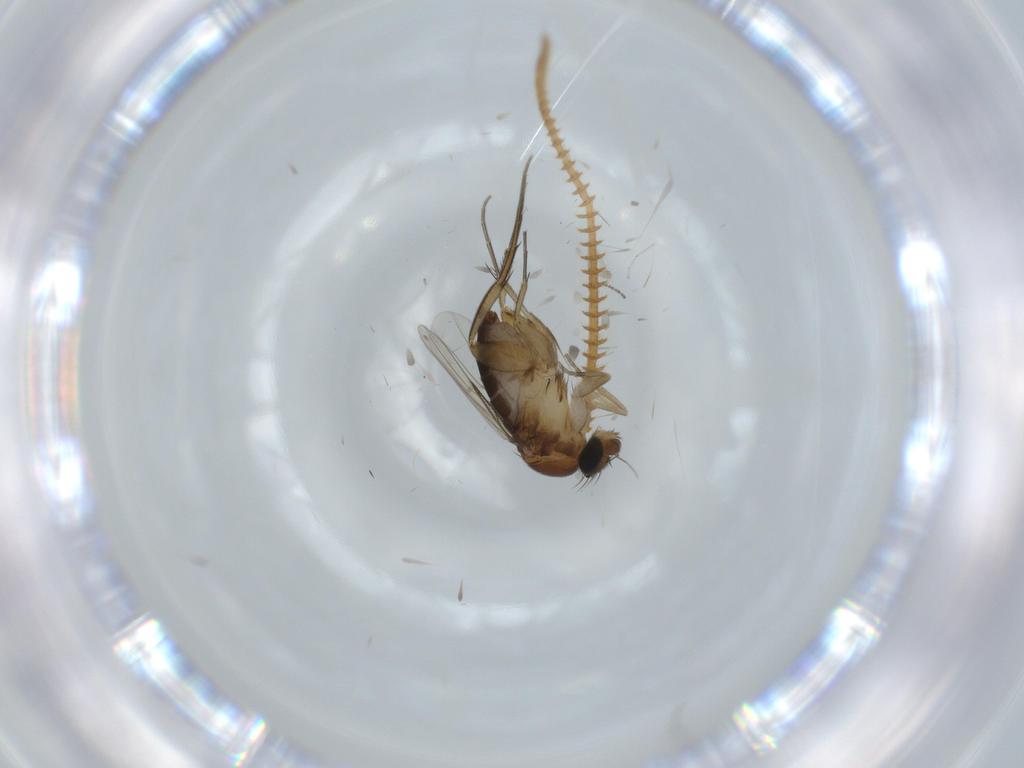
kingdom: Animalia
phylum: Arthropoda
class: Insecta
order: Diptera
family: Phoridae
